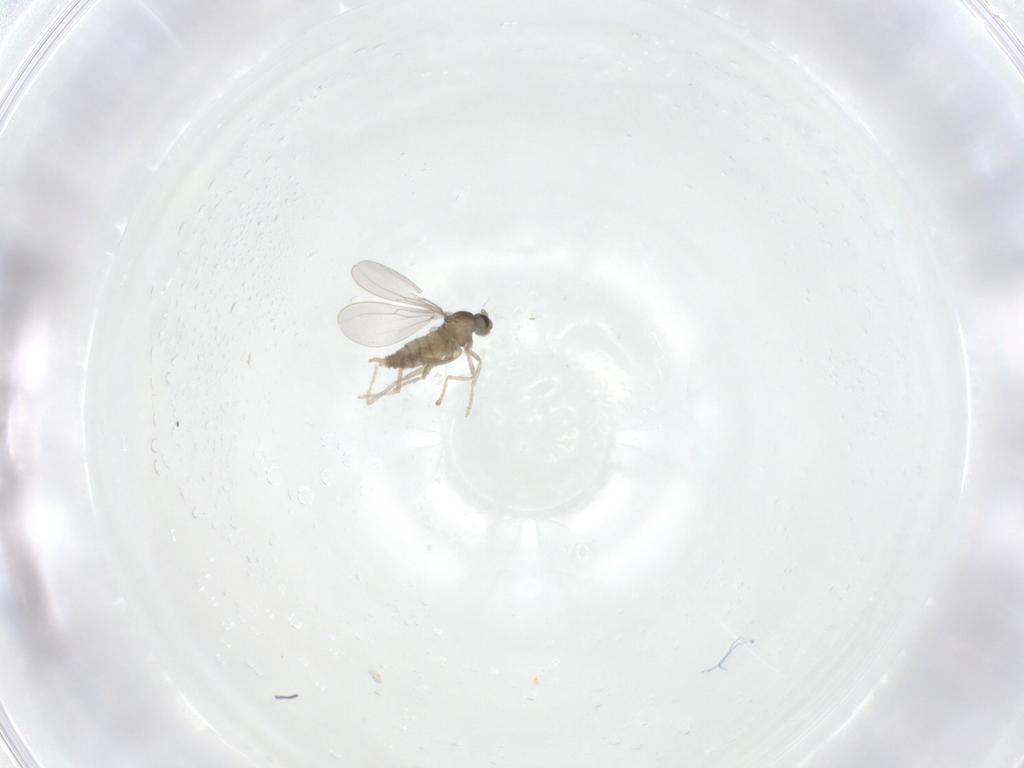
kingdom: Animalia
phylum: Arthropoda
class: Insecta
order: Diptera
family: Cecidomyiidae
